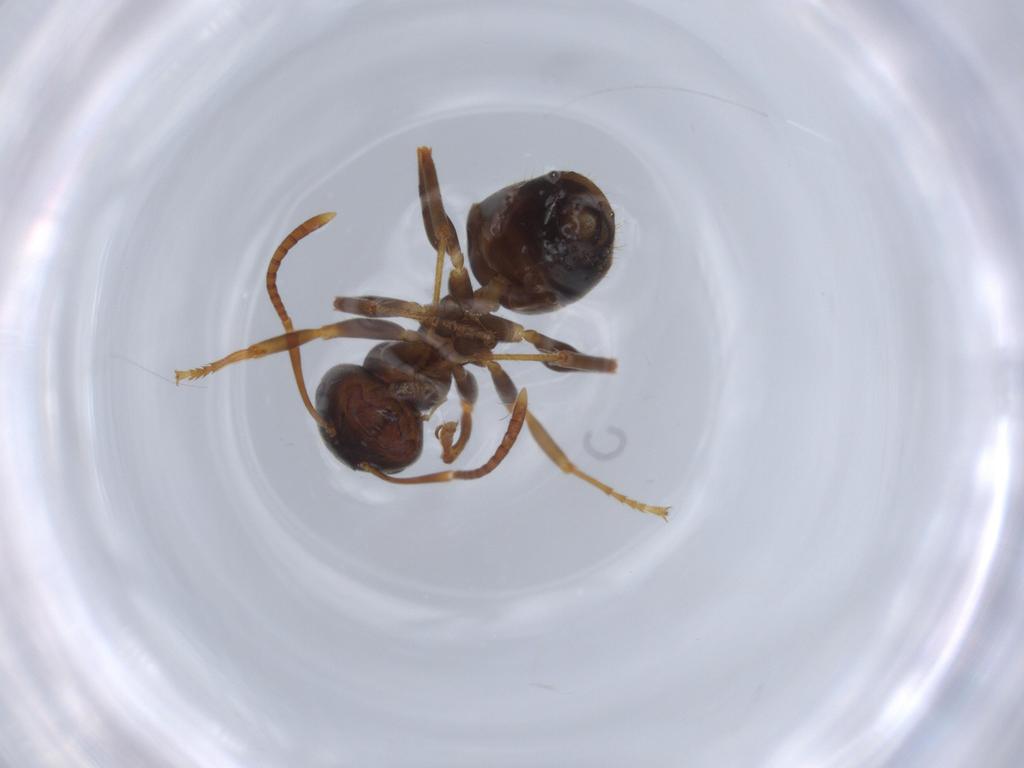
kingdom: Animalia
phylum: Arthropoda
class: Insecta
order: Hymenoptera
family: Formicidae
